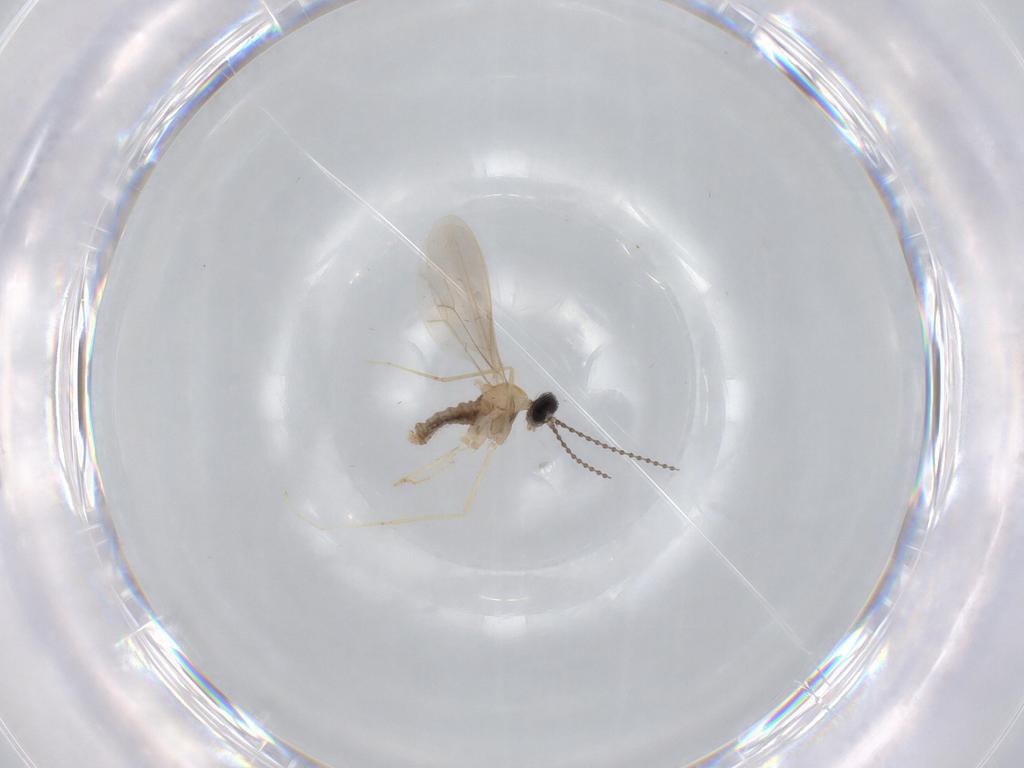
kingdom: Animalia
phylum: Arthropoda
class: Insecta
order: Diptera
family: Cecidomyiidae
